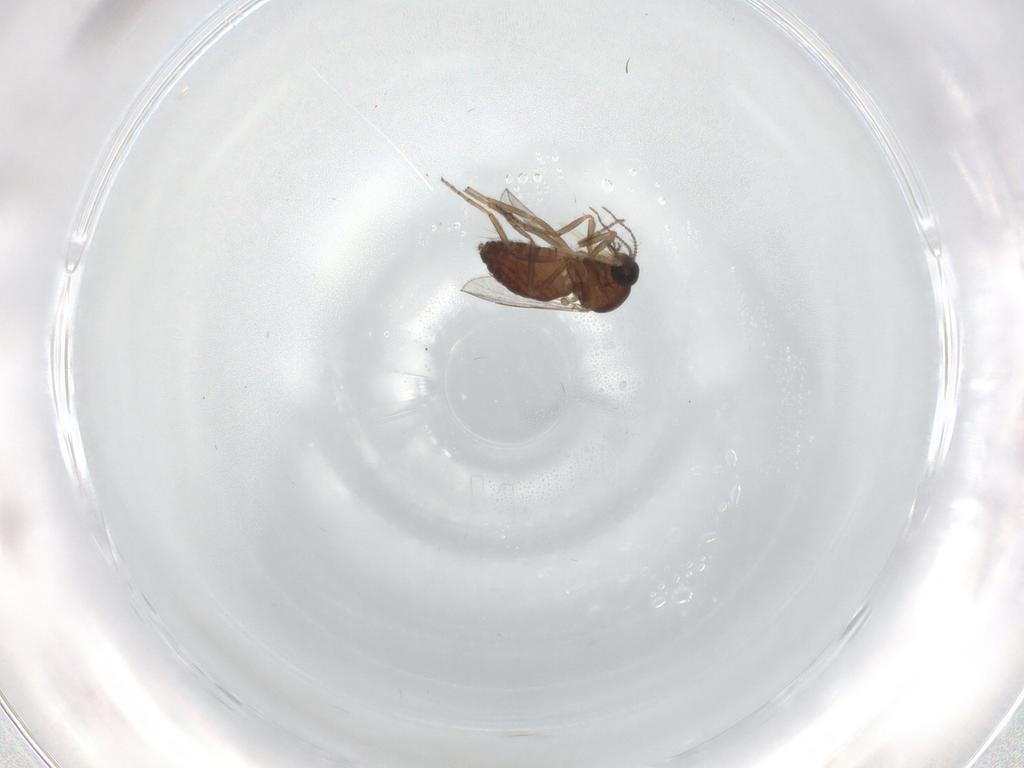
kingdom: Animalia
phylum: Arthropoda
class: Insecta
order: Diptera
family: Ceratopogonidae
